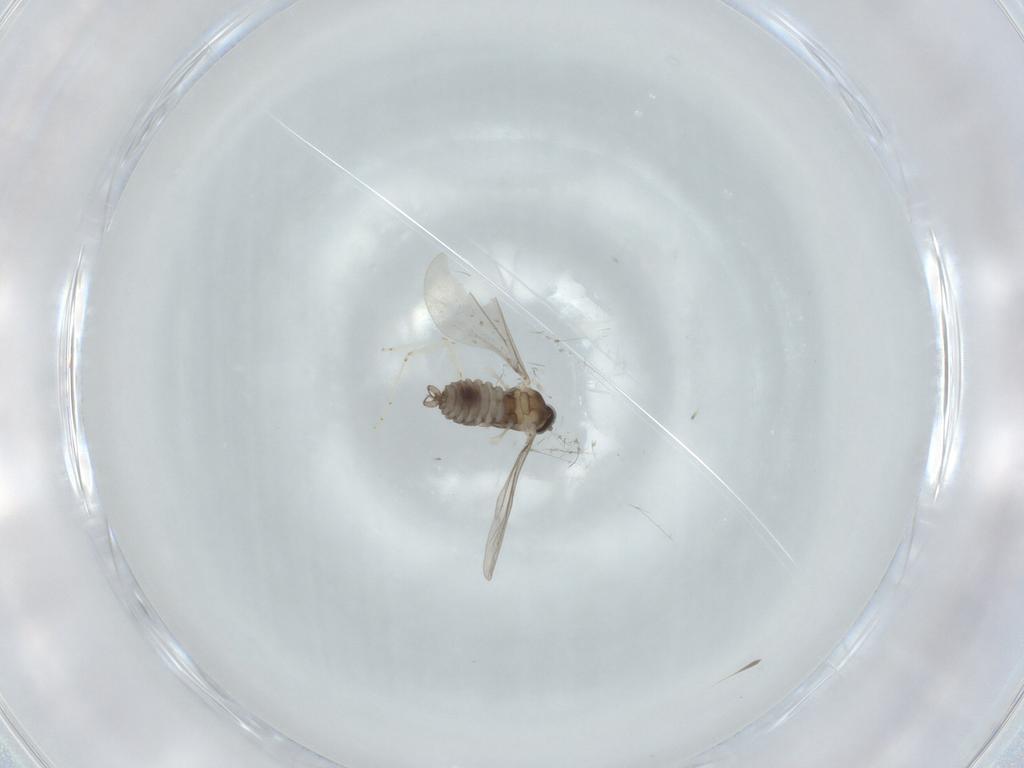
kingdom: Animalia
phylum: Arthropoda
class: Insecta
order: Diptera
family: Cecidomyiidae
